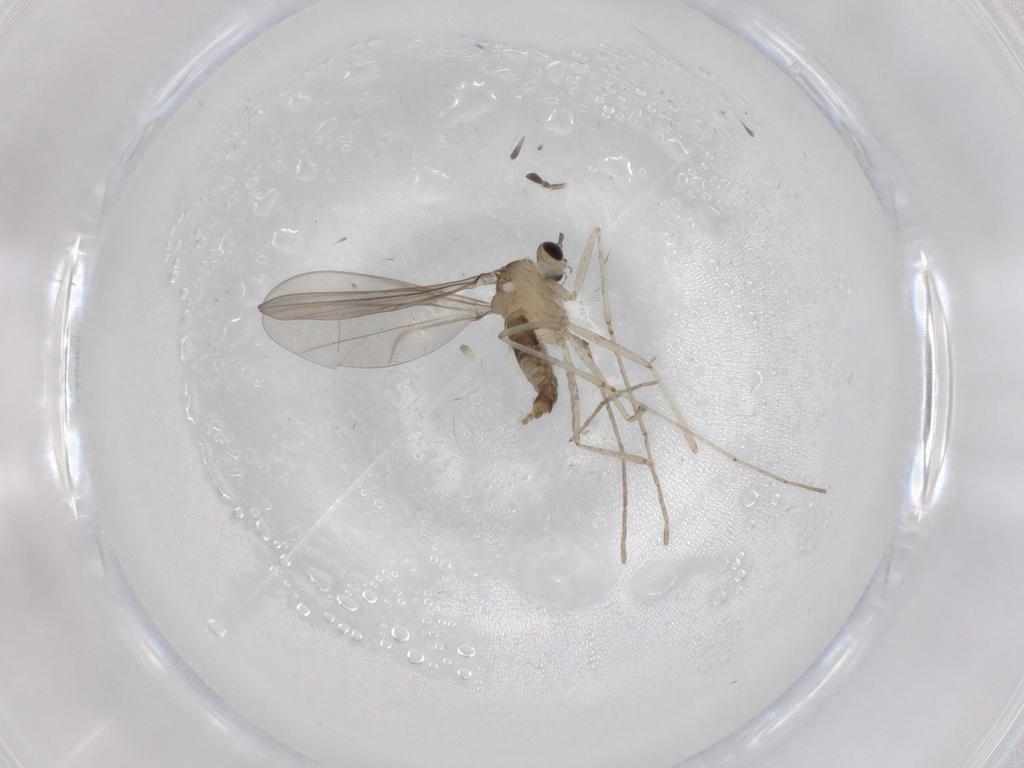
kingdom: Animalia
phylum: Arthropoda
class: Insecta
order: Diptera
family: Cecidomyiidae
